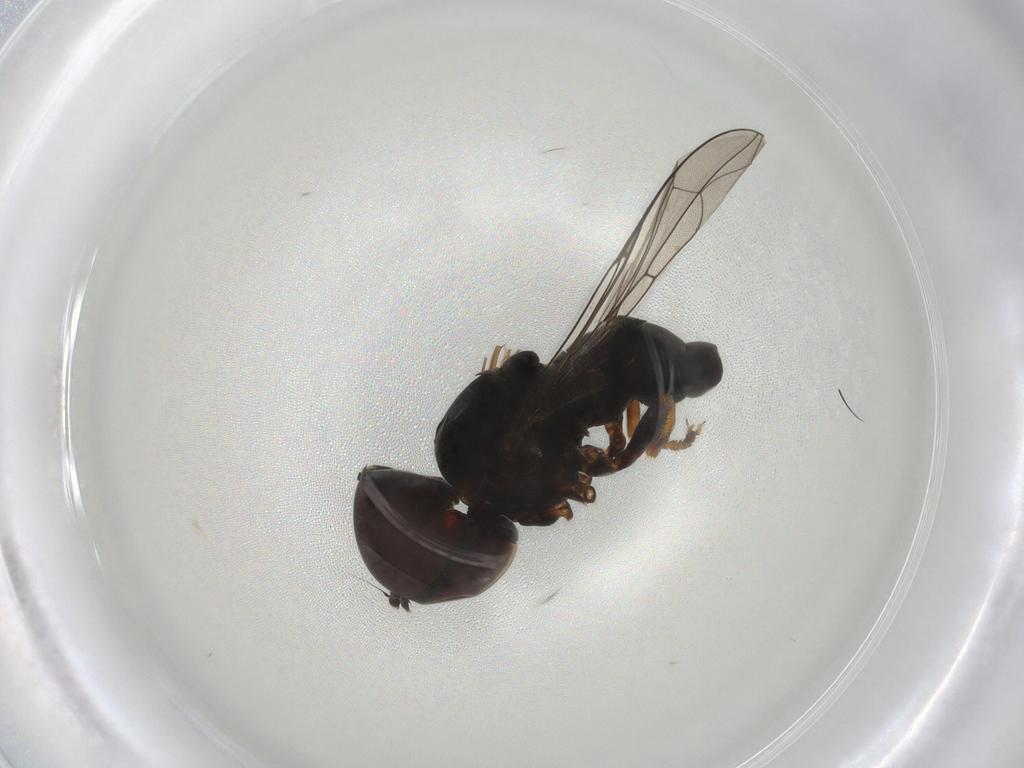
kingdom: Animalia
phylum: Arthropoda
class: Insecta
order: Diptera
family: Pipunculidae
